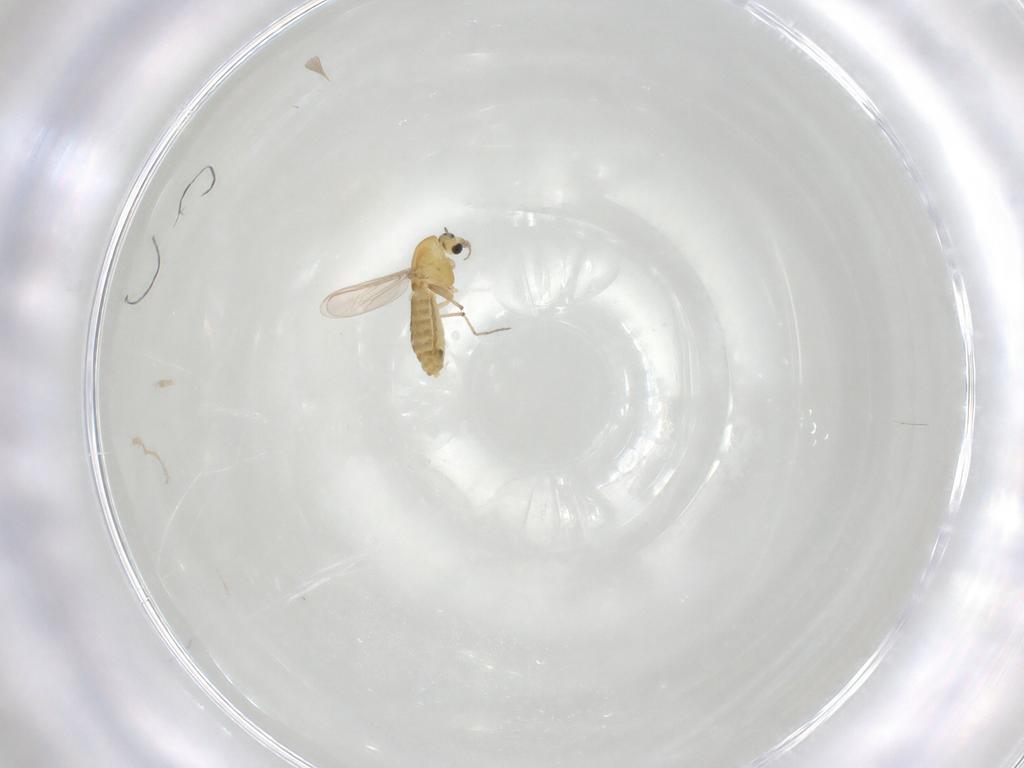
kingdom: Animalia
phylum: Arthropoda
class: Insecta
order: Diptera
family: Chironomidae
